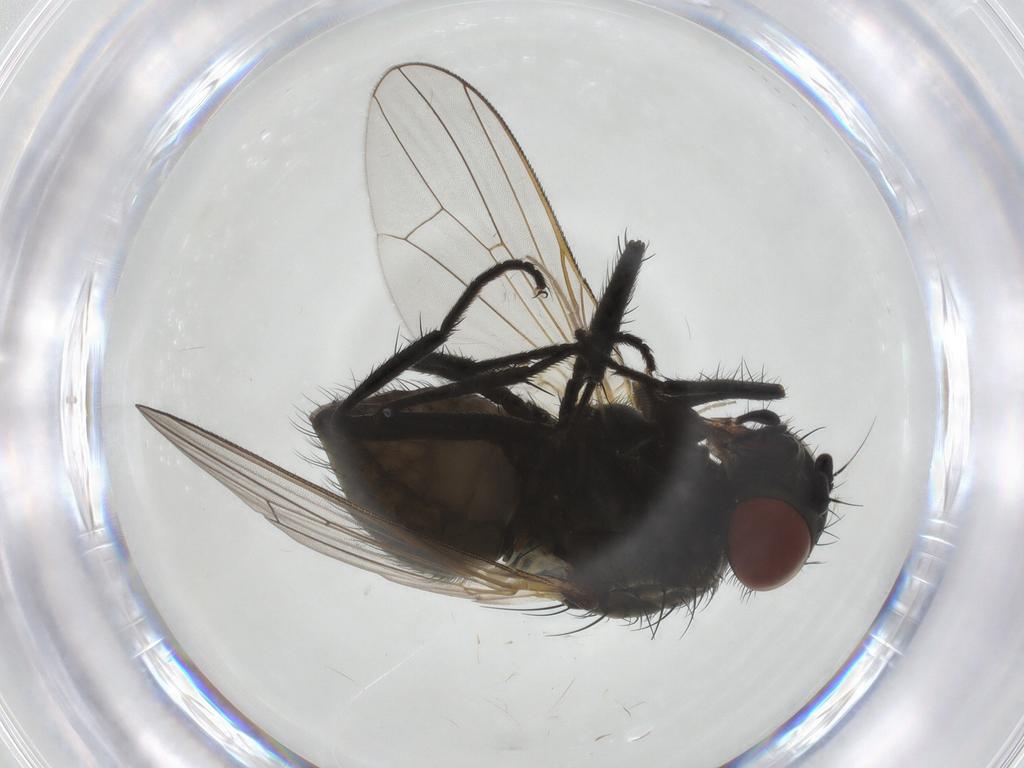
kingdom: Animalia
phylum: Arthropoda
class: Insecta
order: Diptera
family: Anthomyiidae
